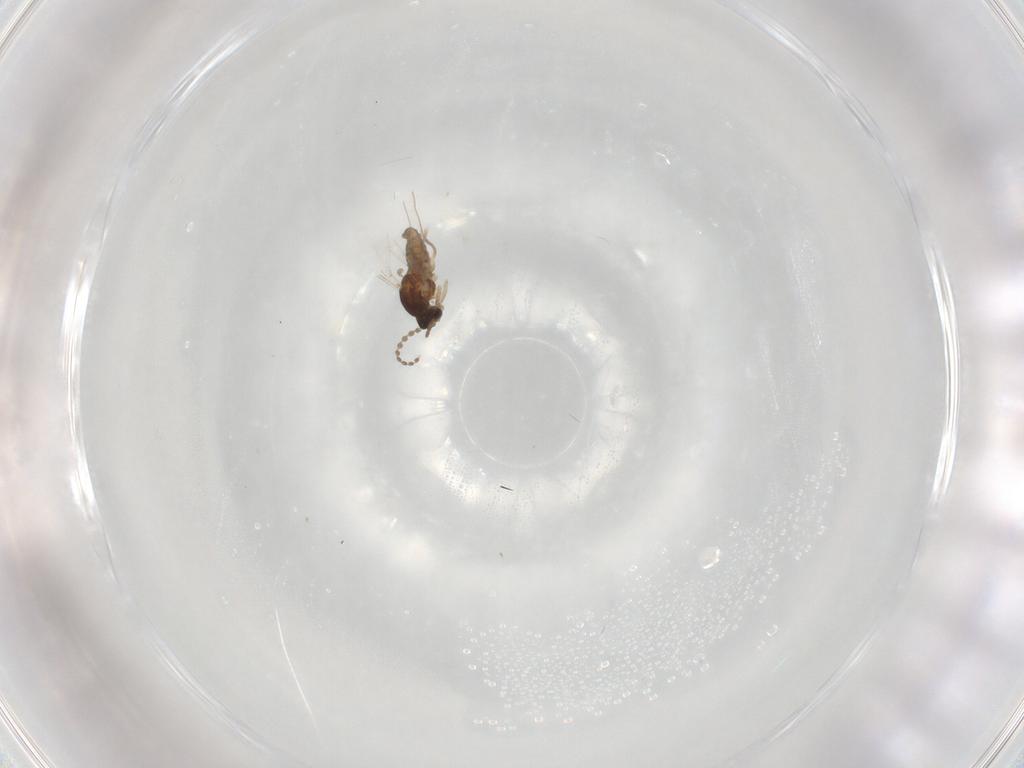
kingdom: Animalia
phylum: Arthropoda
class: Insecta
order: Diptera
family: Cecidomyiidae
